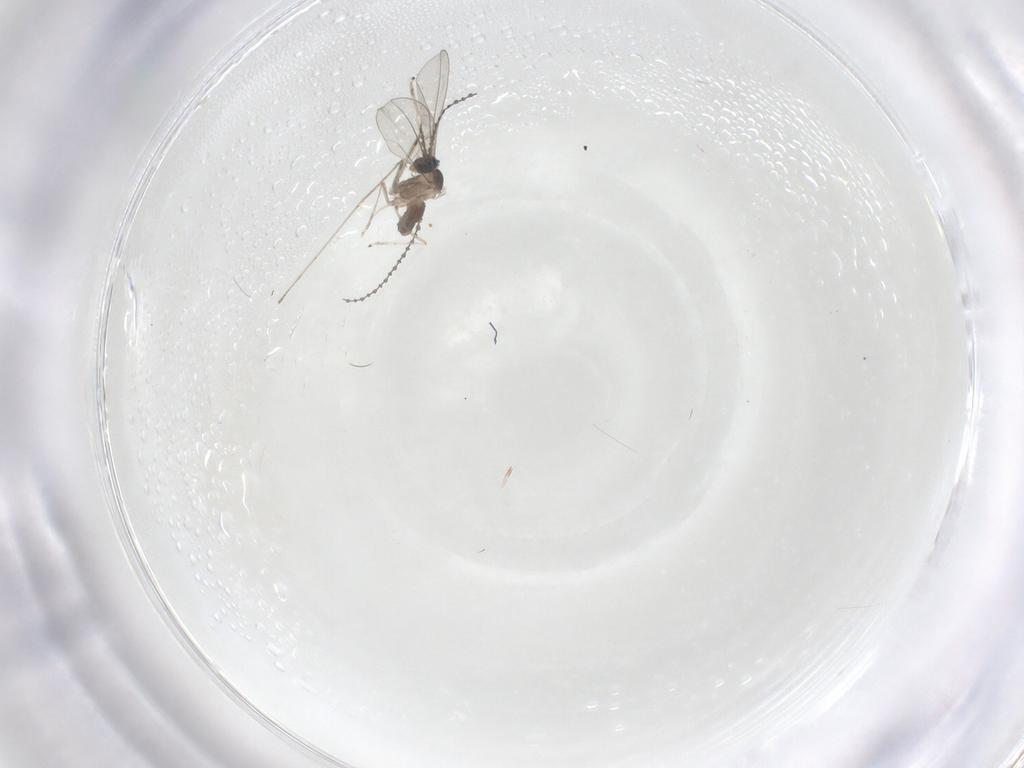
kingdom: Animalia
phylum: Arthropoda
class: Insecta
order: Diptera
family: Cecidomyiidae
